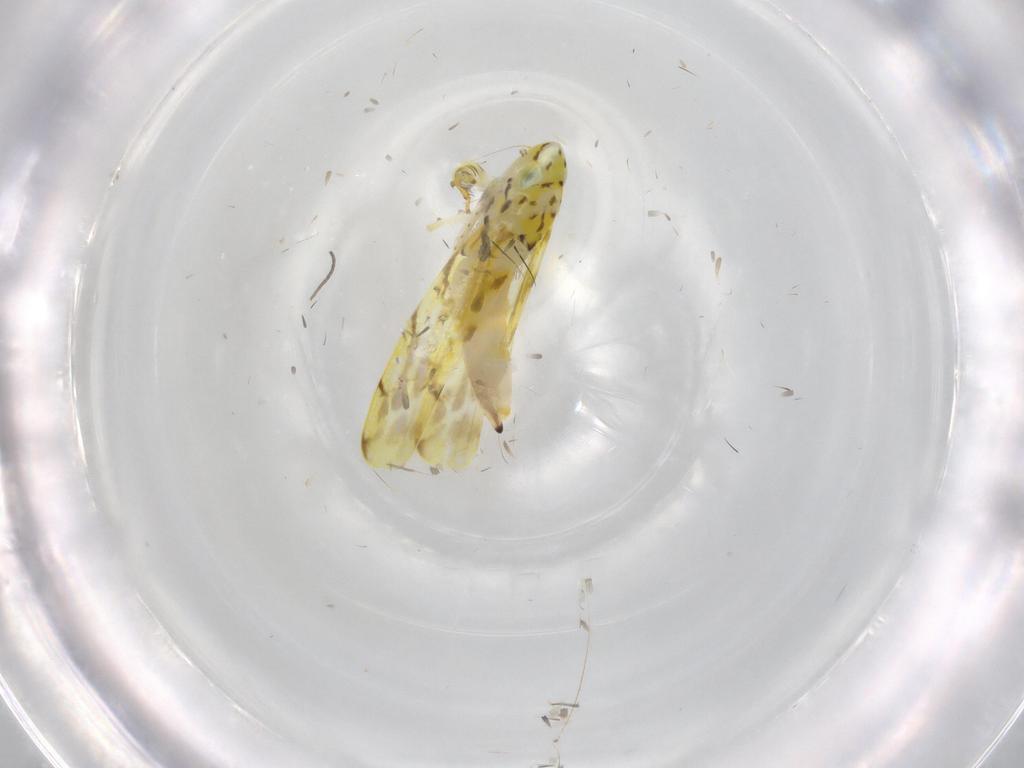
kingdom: Animalia
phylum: Arthropoda
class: Insecta
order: Hemiptera
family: Cicadellidae
